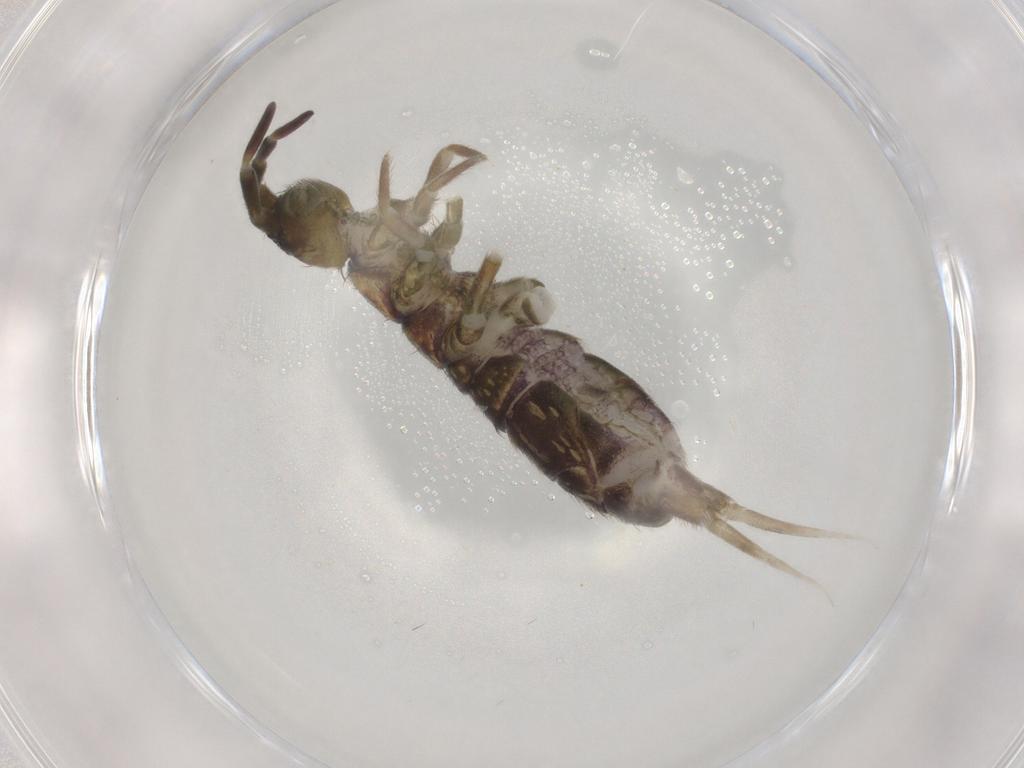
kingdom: Animalia
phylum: Arthropoda
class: Collembola
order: Entomobryomorpha
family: Isotomidae
